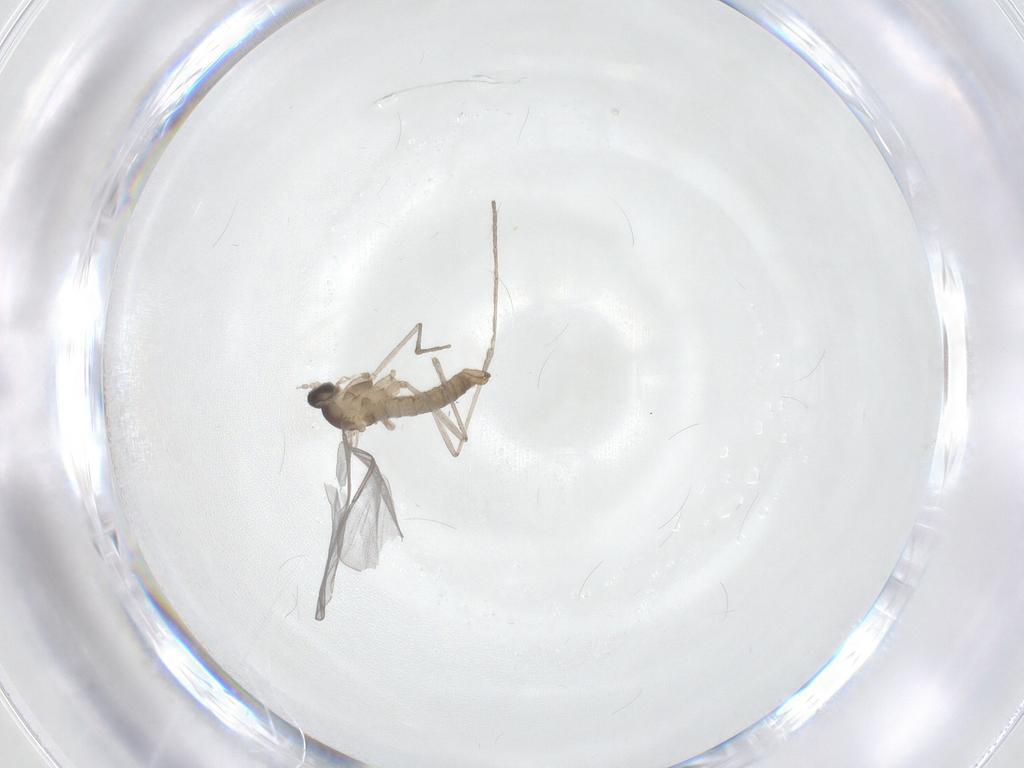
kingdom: Animalia
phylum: Arthropoda
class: Insecta
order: Diptera
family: Cecidomyiidae
